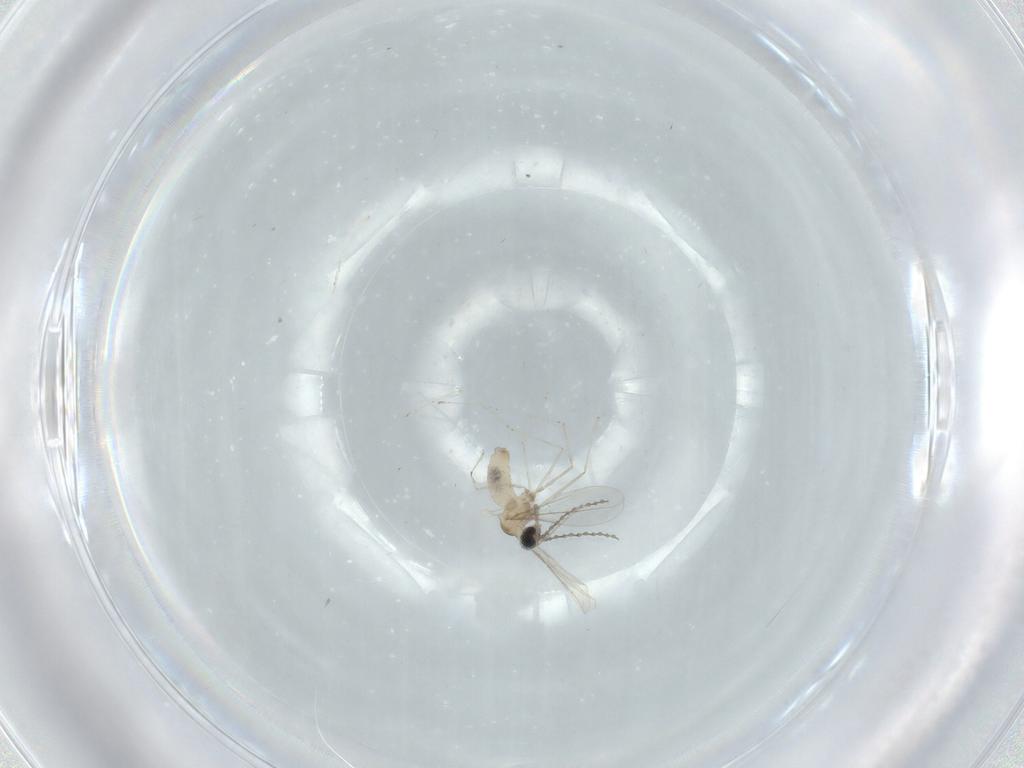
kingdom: Animalia
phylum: Arthropoda
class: Insecta
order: Diptera
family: Cecidomyiidae
